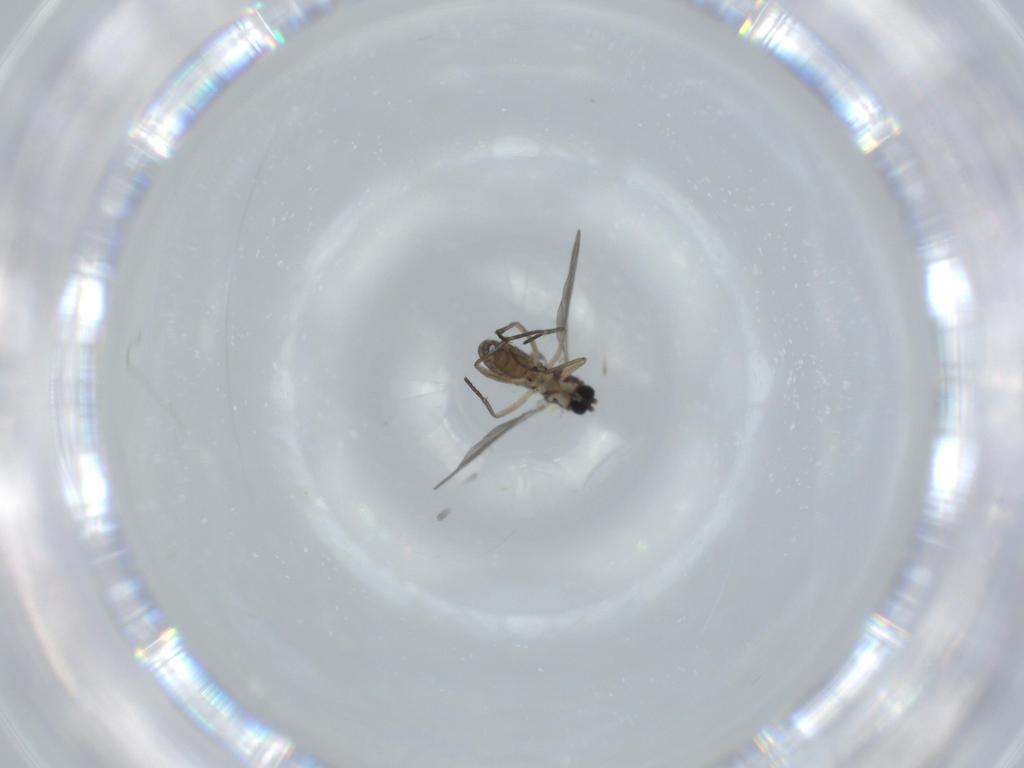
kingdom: Animalia
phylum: Arthropoda
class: Insecta
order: Diptera
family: Sciaridae
